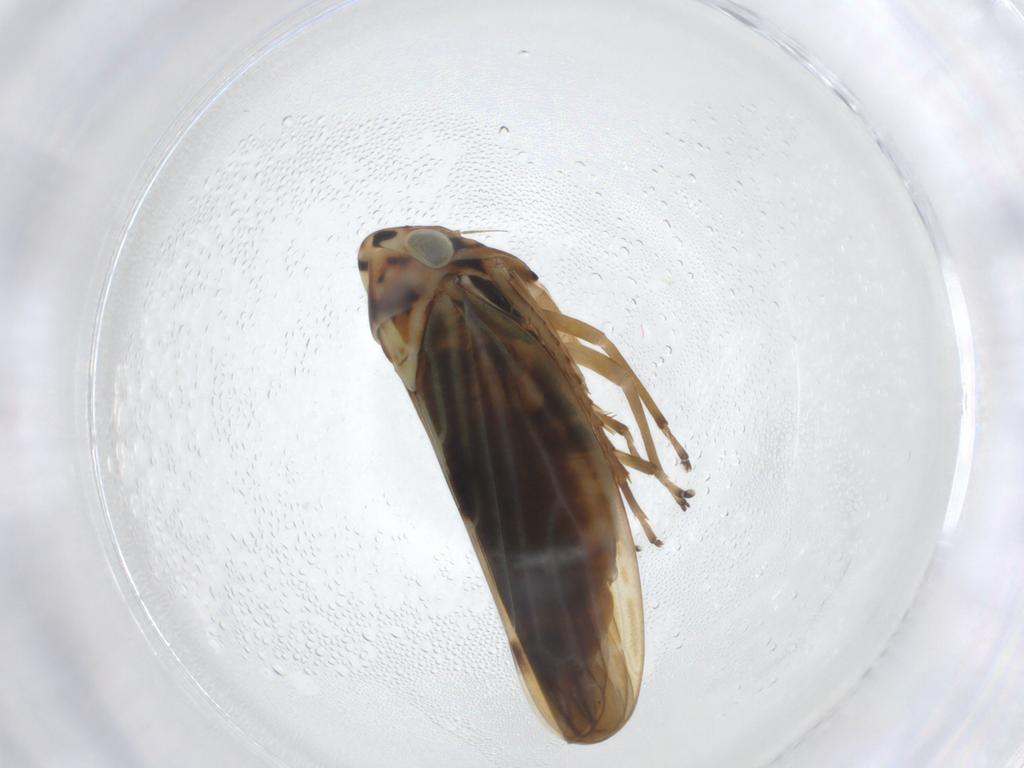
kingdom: Animalia
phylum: Arthropoda
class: Insecta
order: Hemiptera
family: Cicadellidae
